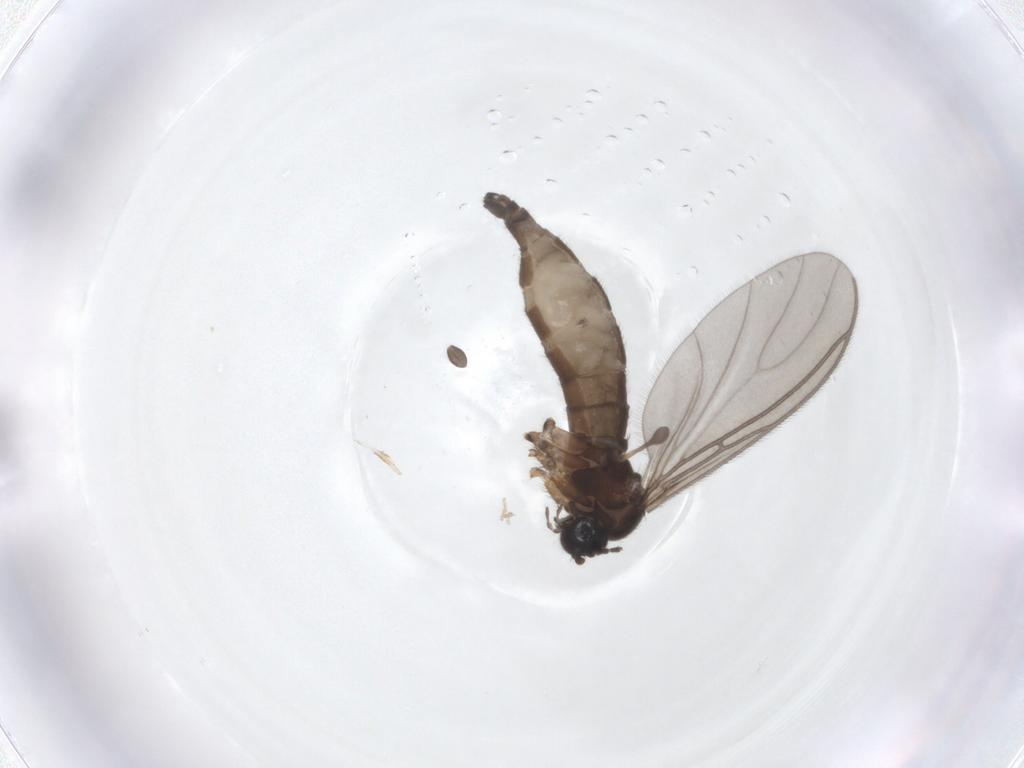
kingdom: Animalia
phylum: Arthropoda
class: Insecta
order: Diptera
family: Sciaridae
